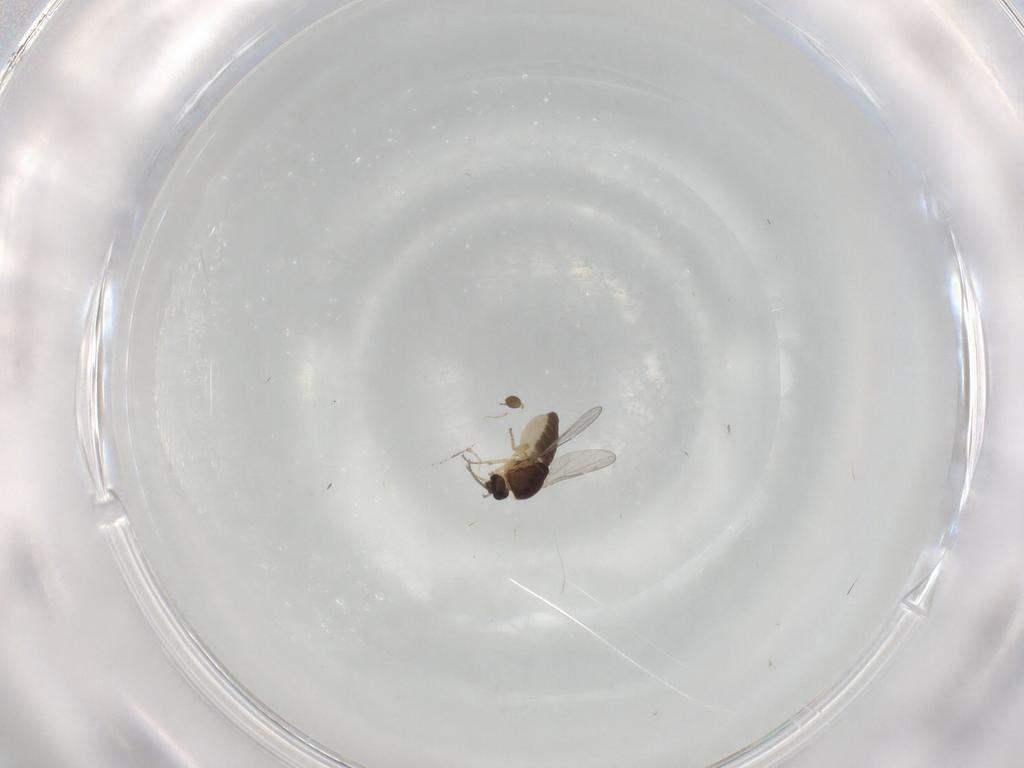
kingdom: Animalia
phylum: Arthropoda
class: Insecta
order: Diptera
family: Ceratopogonidae
